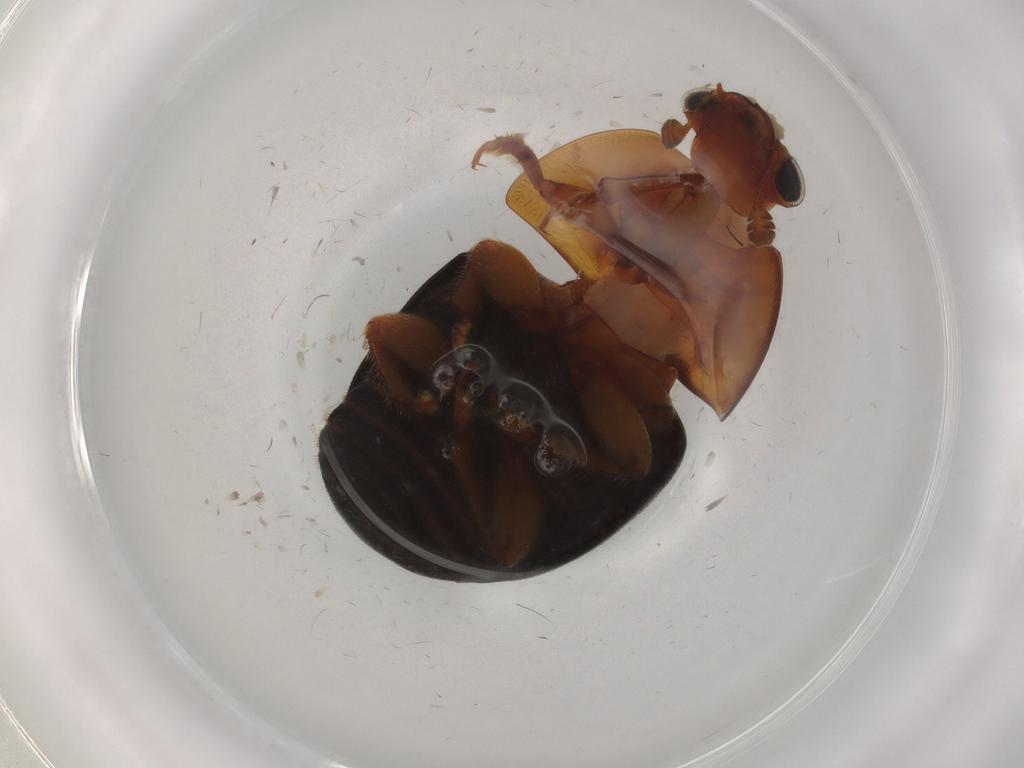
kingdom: Animalia
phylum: Arthropoda
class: Insecta
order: Coleoptera
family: Nitidulidae
